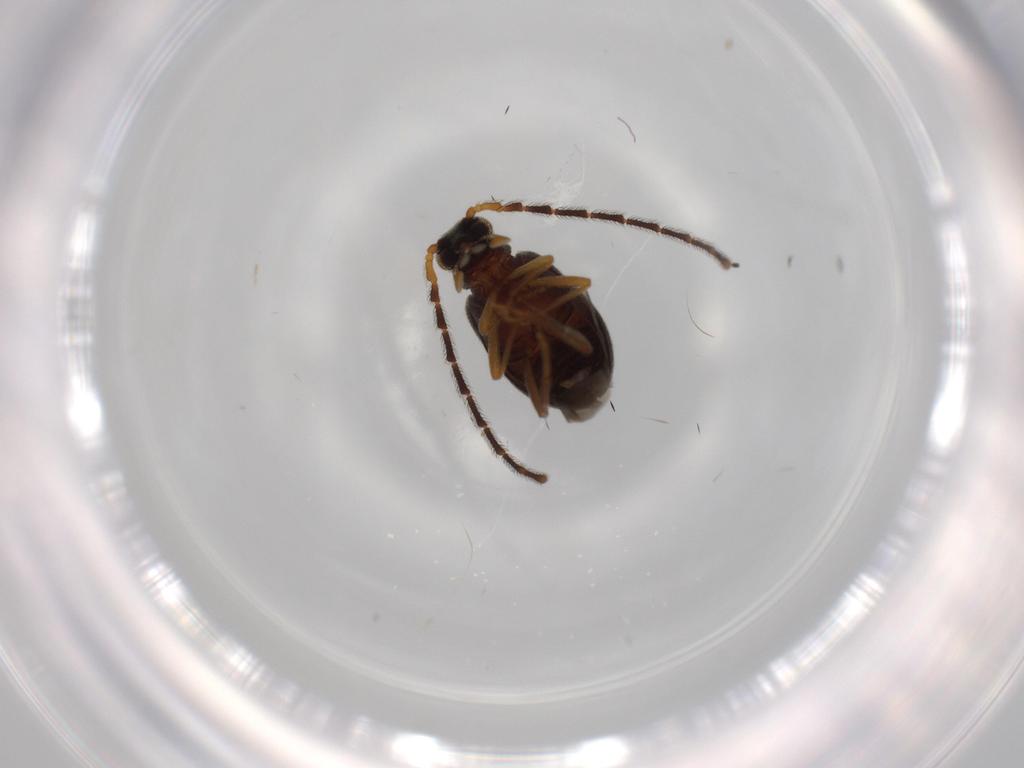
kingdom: Animalia
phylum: Arthropoda
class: Insecta
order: Coleoptera
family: Aderidae
